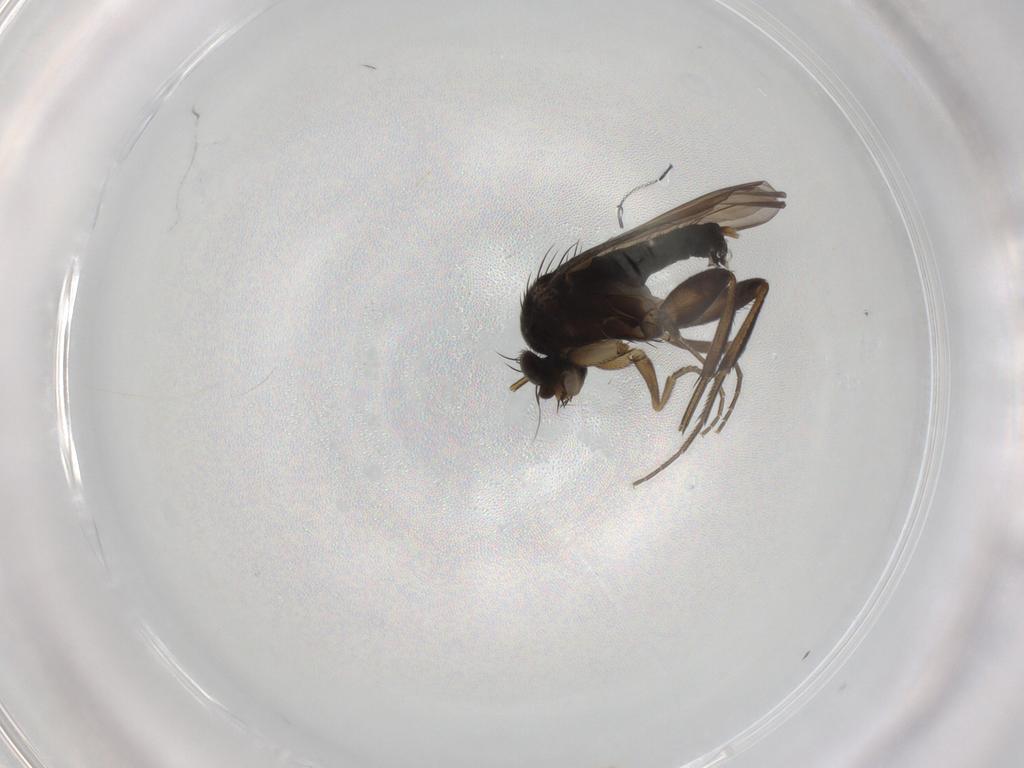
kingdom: Animalia
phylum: Arthropoda
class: Insecta
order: Diptera
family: Phoridae
